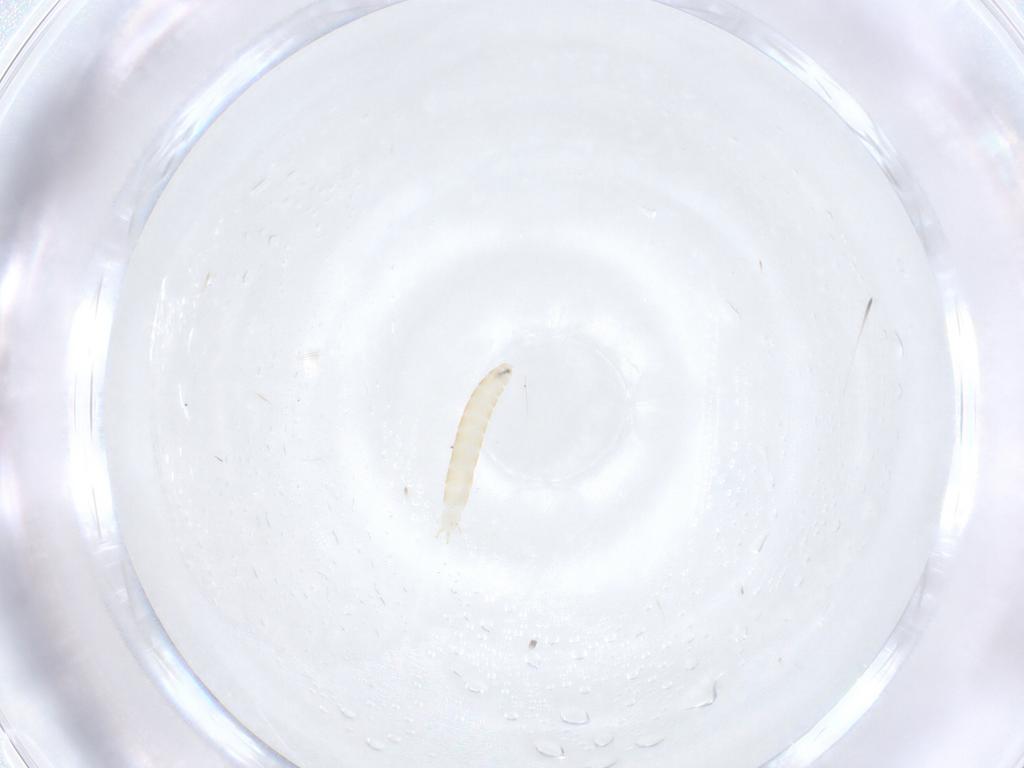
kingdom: Animalia
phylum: Arthropoda
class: Insecta
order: Diptera
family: Tachinidae
